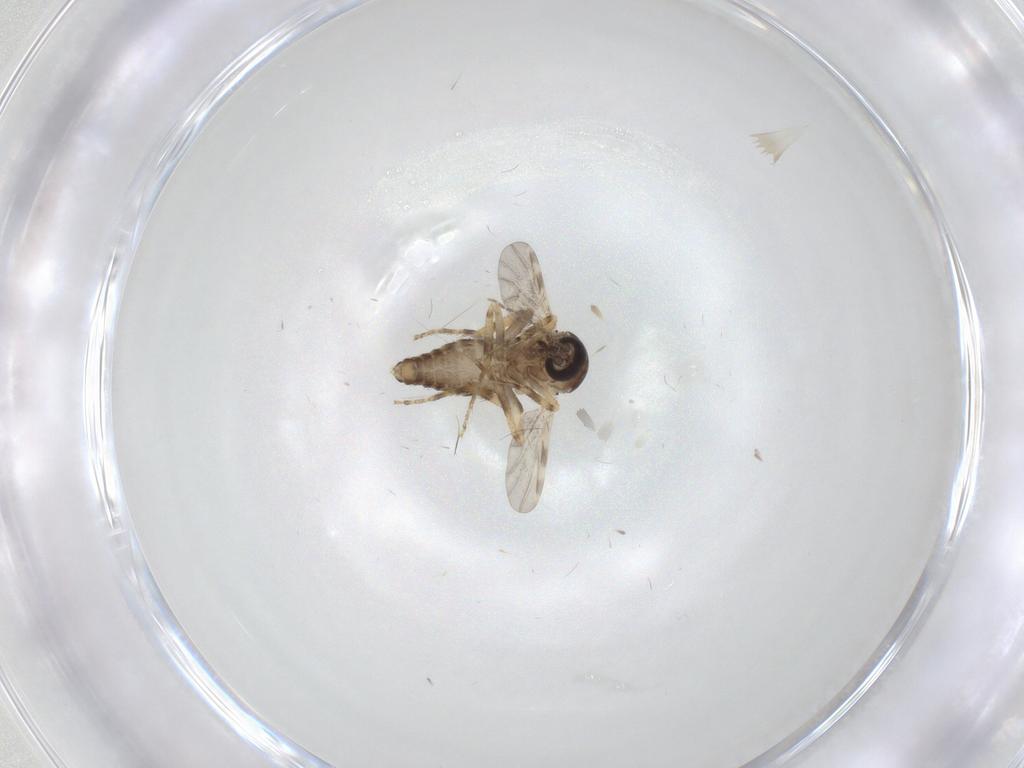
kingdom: Animalia
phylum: Arthropoda
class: Insecta
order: Diptera
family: Ceratopogonidae
